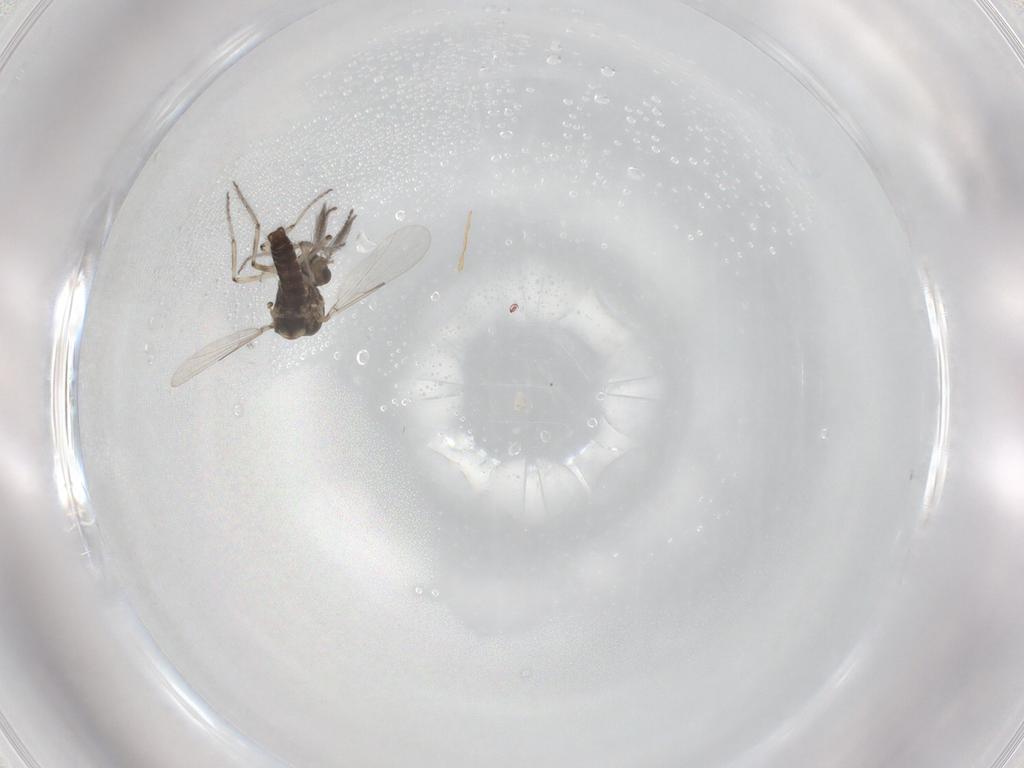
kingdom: Animalia
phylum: Arthropoda
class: Insecta
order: Diptera
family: Ceratopogonidae
